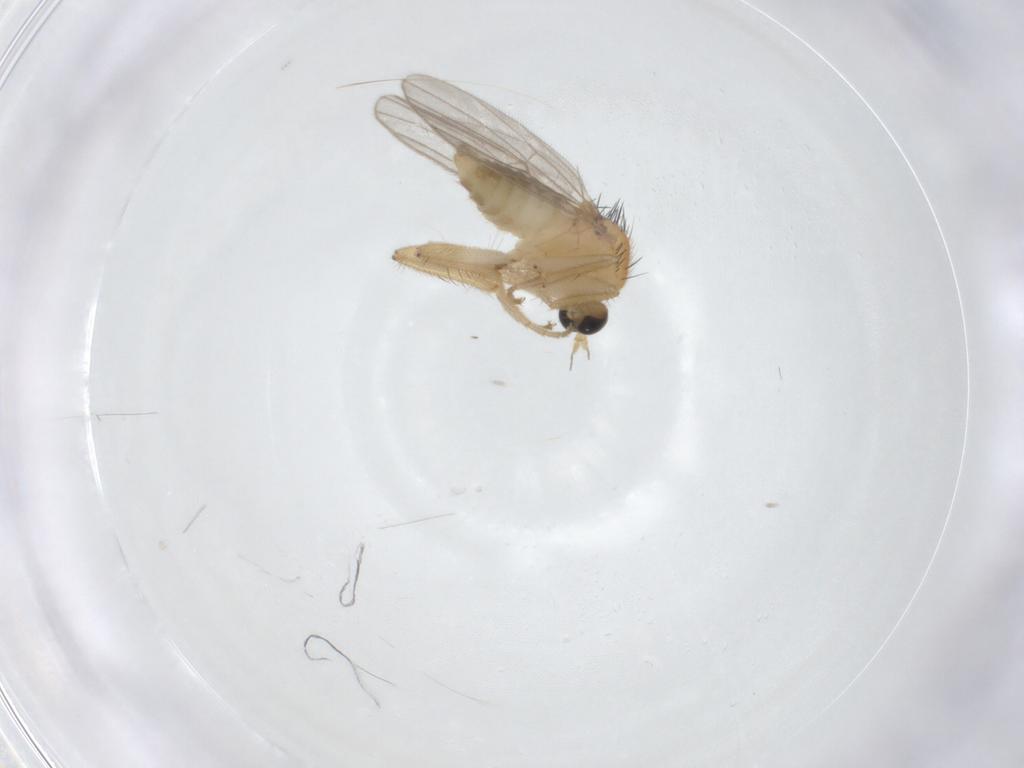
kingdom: Animalia
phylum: Arthropoda
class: Insecta
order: Diptera
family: Hybotidae
